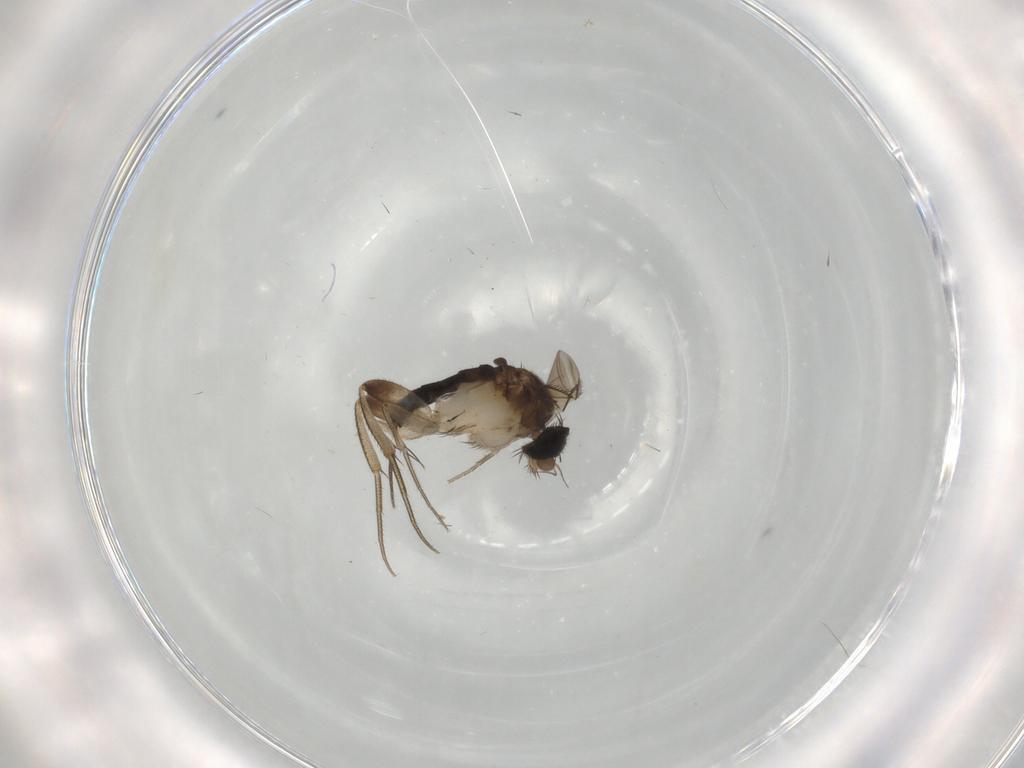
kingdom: Animalia
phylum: Arthropoda
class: Insecta
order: Diptera
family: Phoridae
